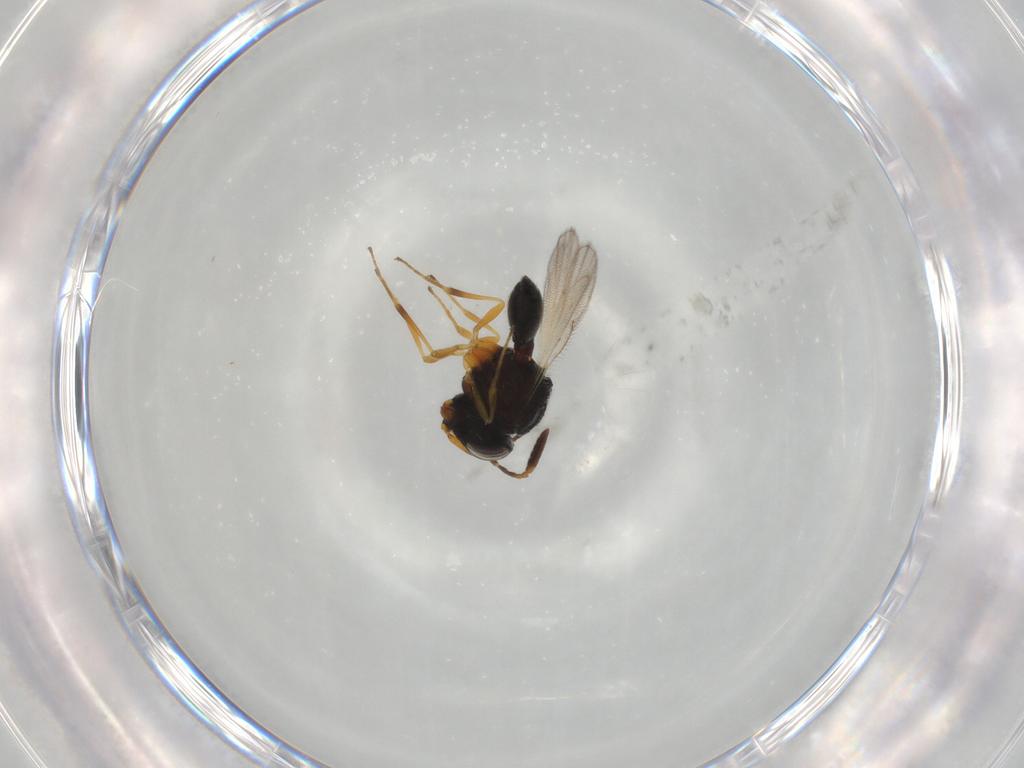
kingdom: Animalia
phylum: Arthropoda
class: Insecta
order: Hymenoptera
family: Scelionidae
